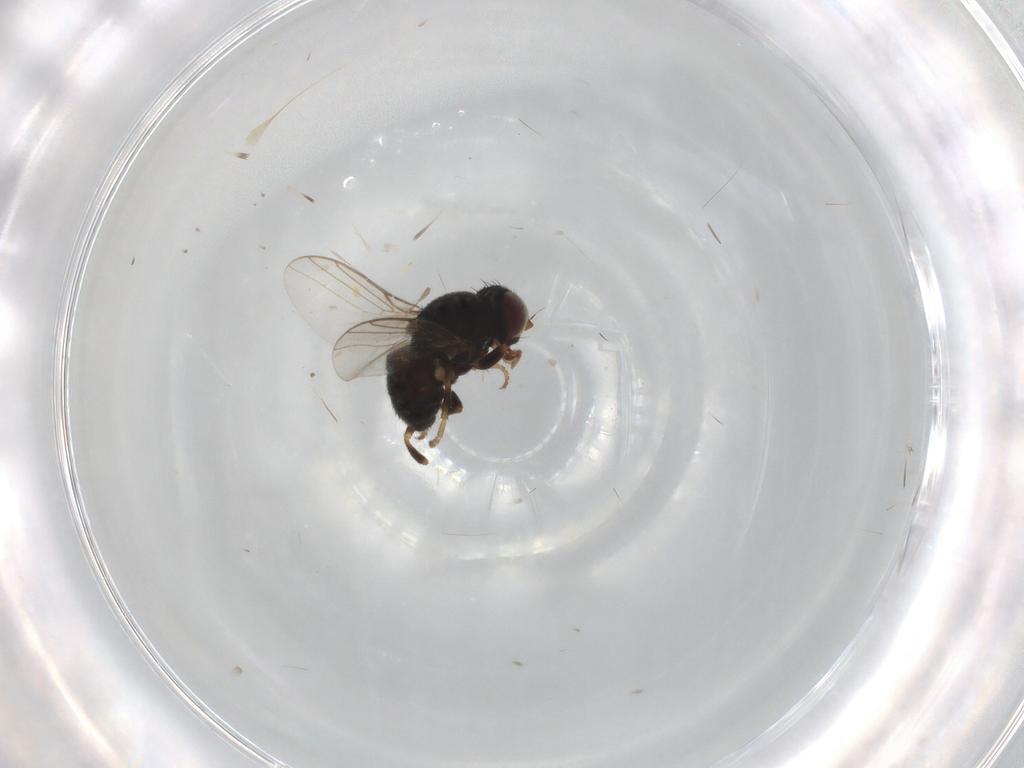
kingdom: Animalia
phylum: Arthropoda
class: Insecta
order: Diptera
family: Chloropidae
